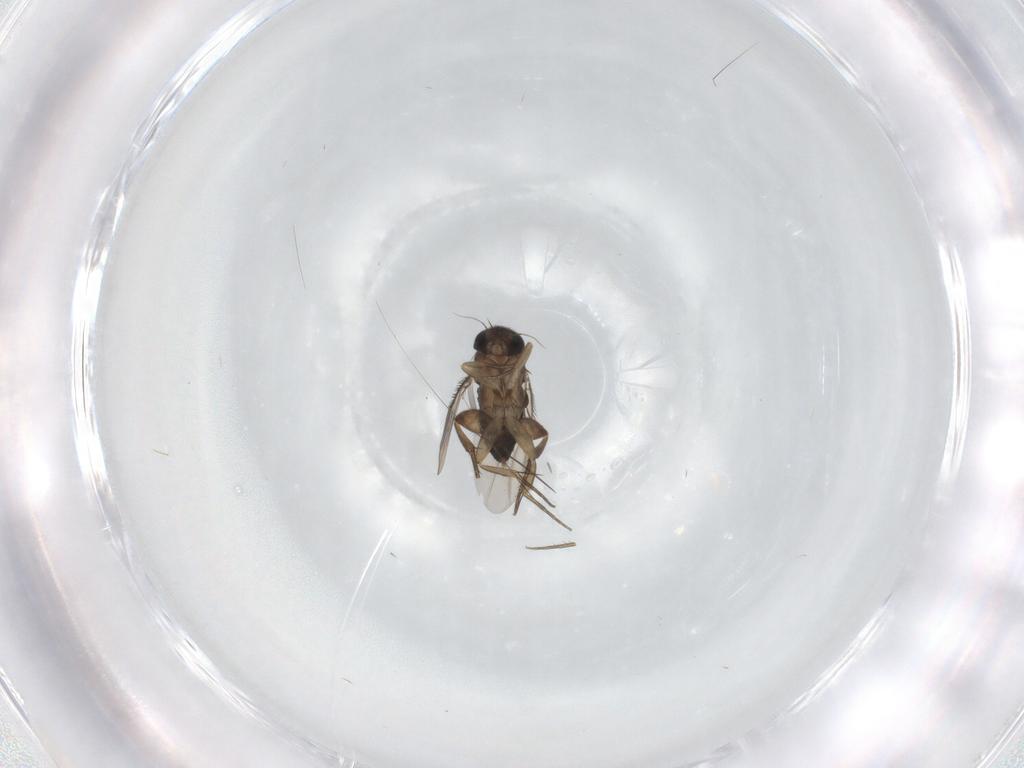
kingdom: Animalia
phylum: Arthropoda
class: Insecta
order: Diptera
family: Phoridae
